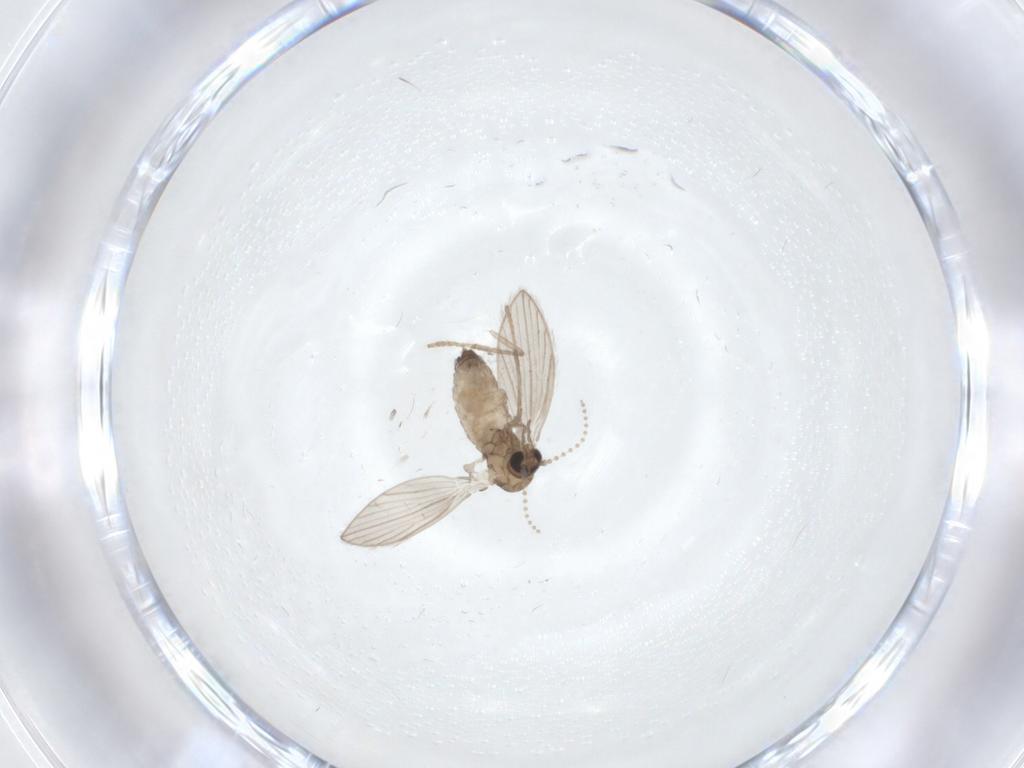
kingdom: Animalia
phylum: Arthropoda
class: Insecta
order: Diptera
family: Psychodidae
